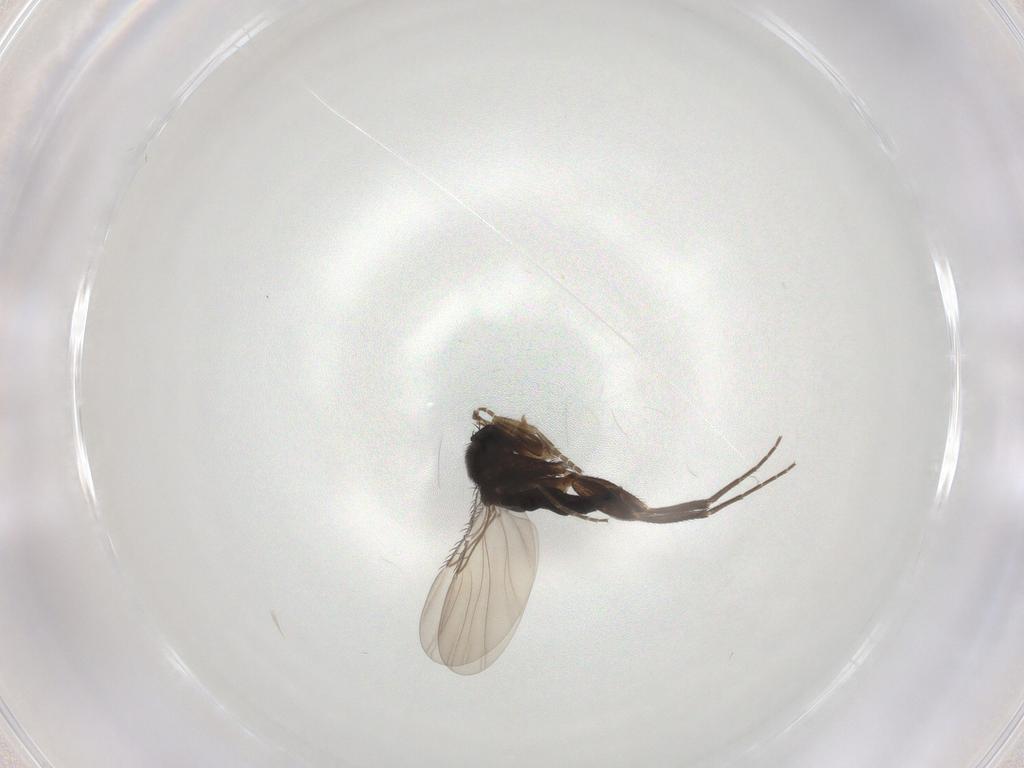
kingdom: Animalia
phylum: Arthropoda
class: Insecta
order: Diptera
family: Phoridae
